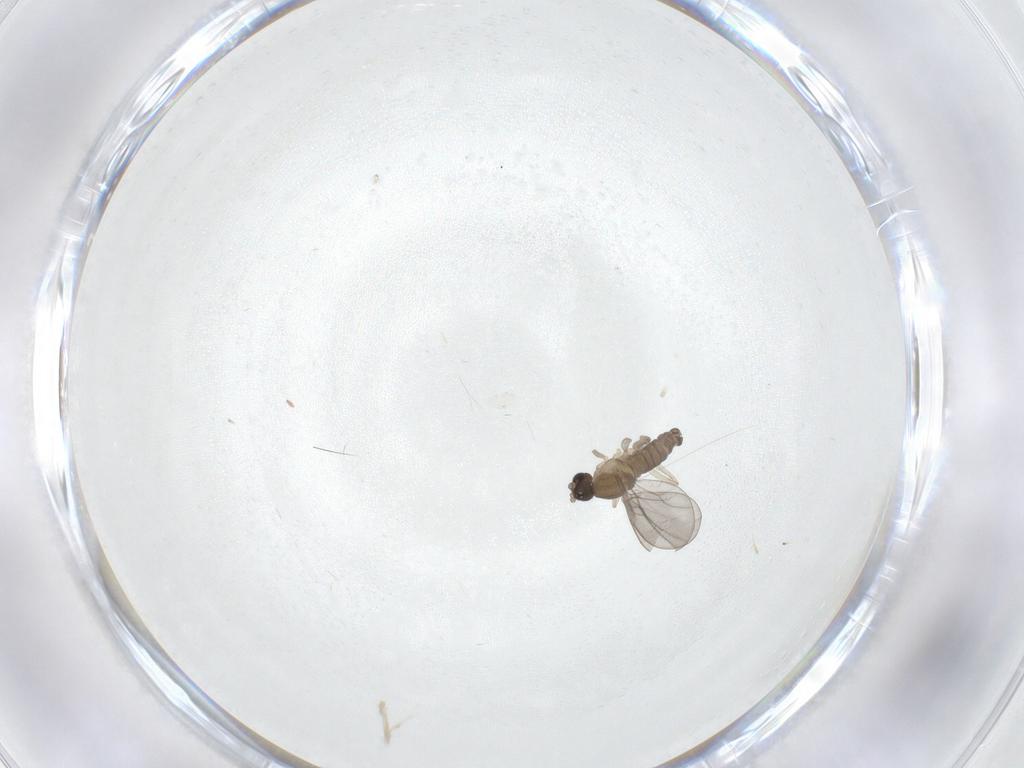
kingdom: Animalia
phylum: Arthropoda
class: Insecta
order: Diptera
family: Cecidomyiidae
